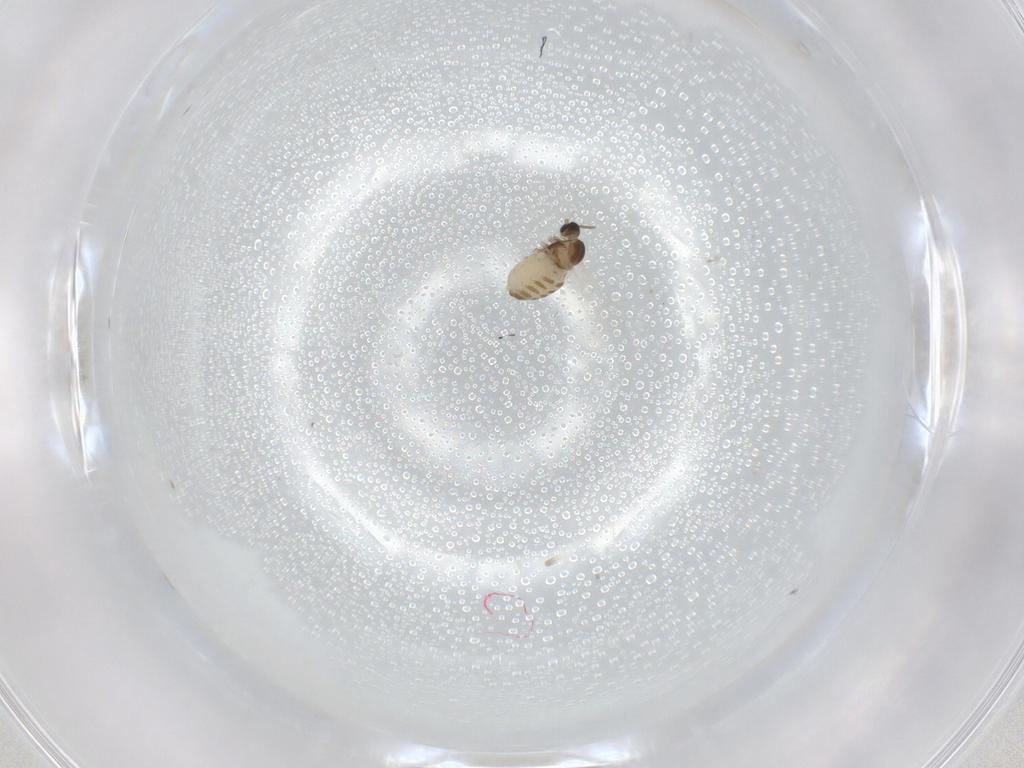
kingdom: Animalia
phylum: Arthropoda
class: Insecta
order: Diptera
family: Cecidomyiidae
